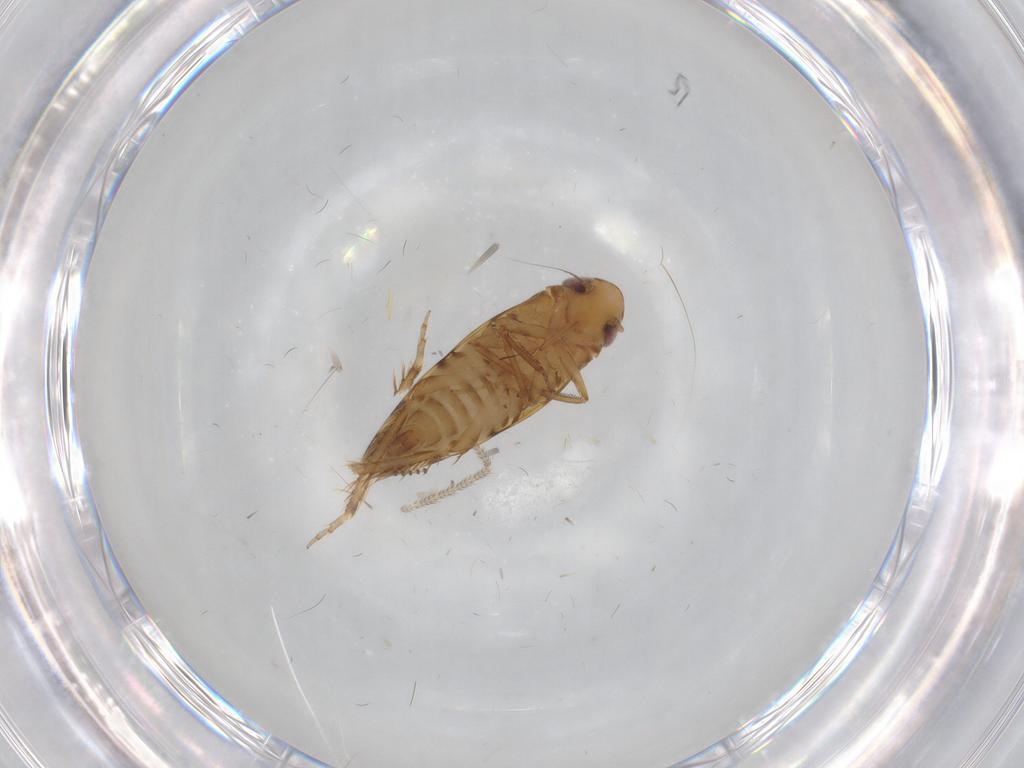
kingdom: Animalia
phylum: Arthropoda
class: Insecta
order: Hemiptera
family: Cicadellidae
